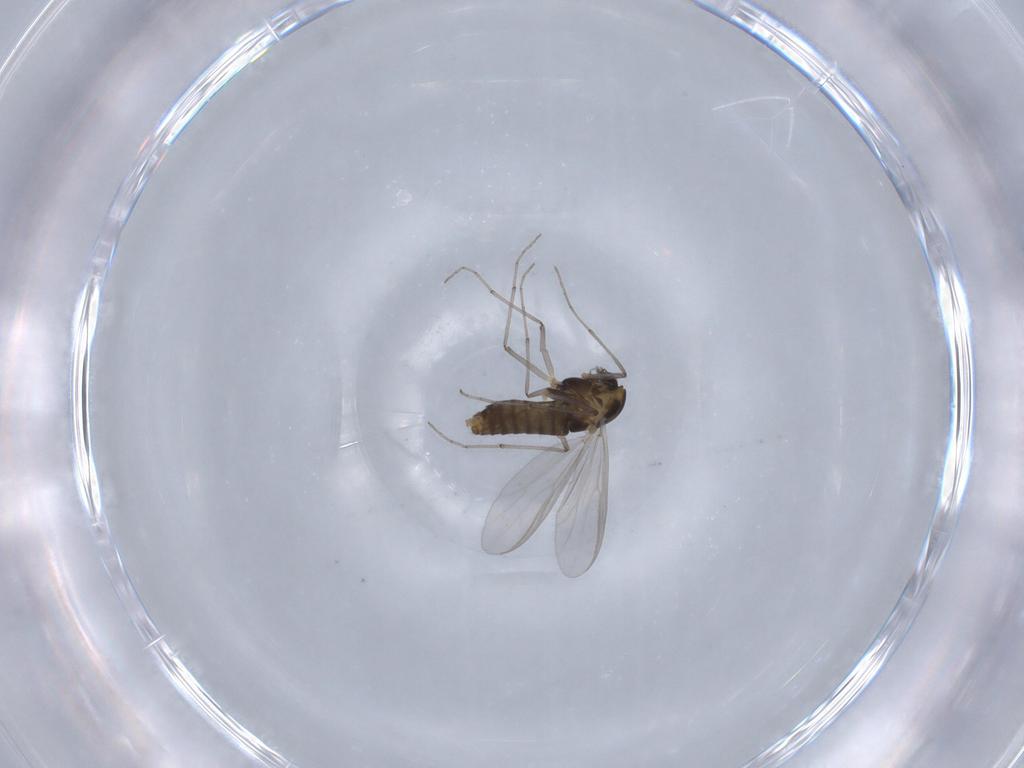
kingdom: Animalia
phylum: Arthropoda
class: Insecta
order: Diptera
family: Chironomidae
